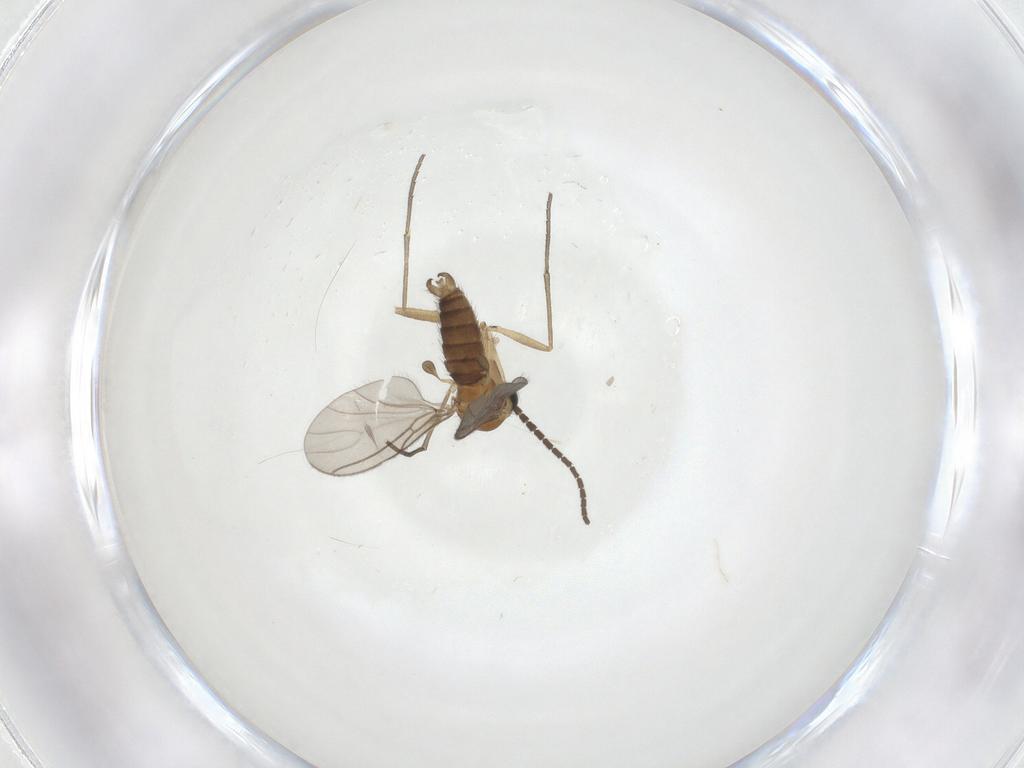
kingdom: Animalia
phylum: Arthropoda
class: Insecta
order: Diptera
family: Sciaridae
